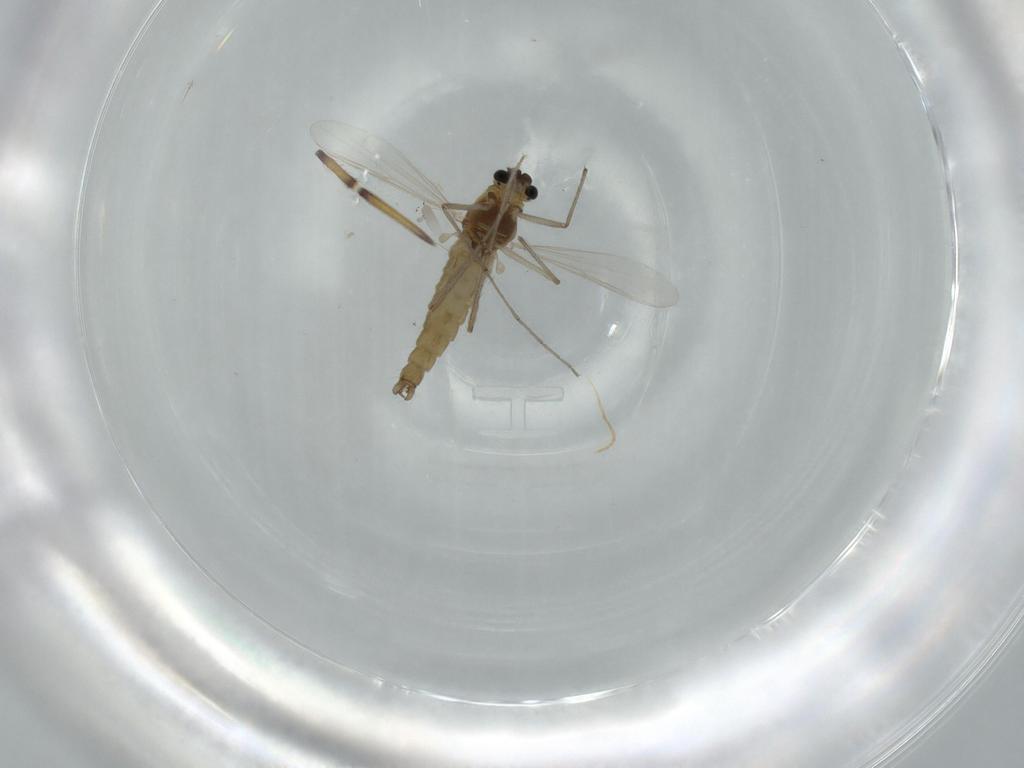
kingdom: Animalia
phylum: Arthropoda
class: Insecta
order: Diptera
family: Chironomidae
